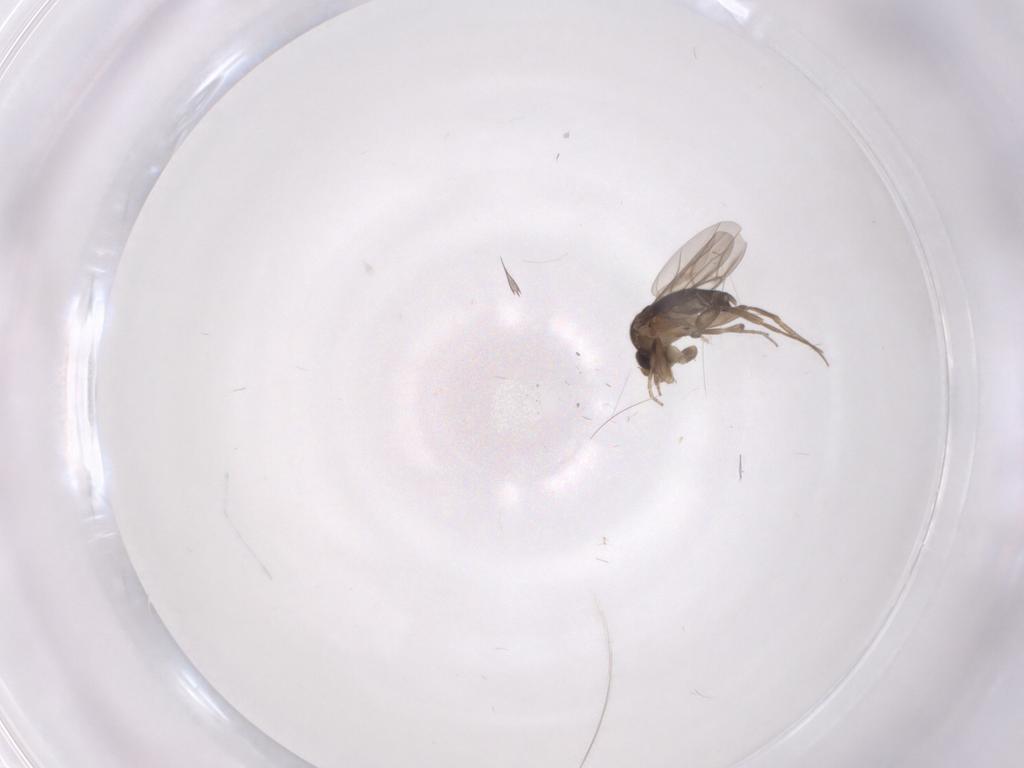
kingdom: Animalia
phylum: Arthropoda
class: Insecta
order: Diptera
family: Phoridae
